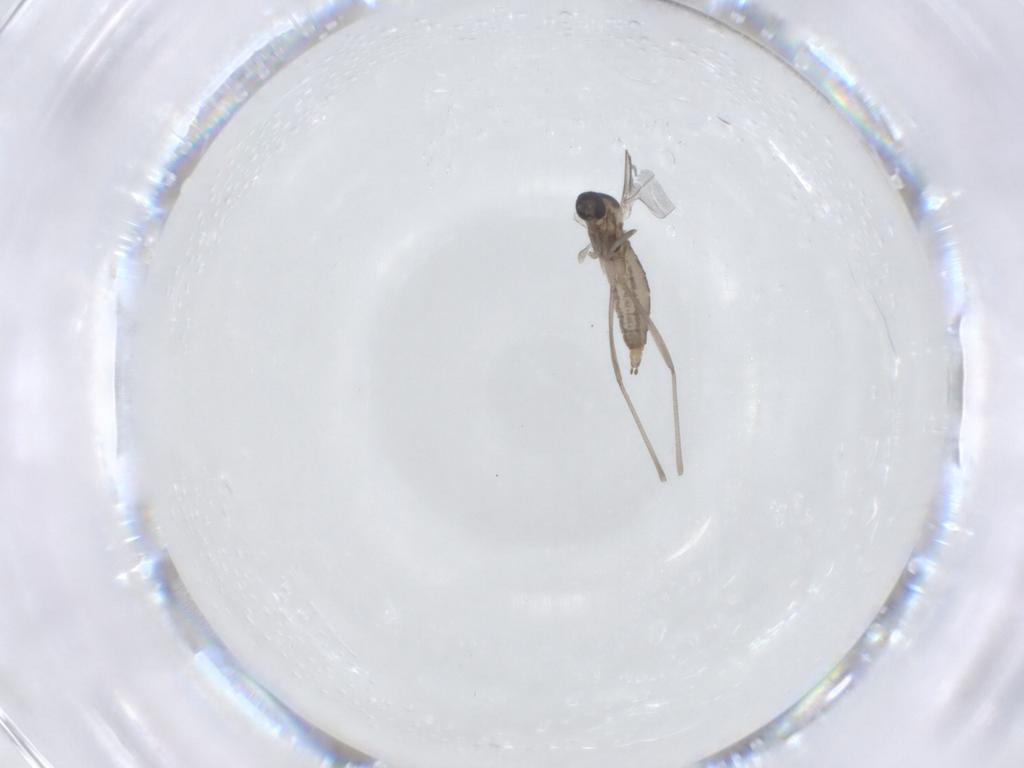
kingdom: Animalia
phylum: Arthropoda
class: Insecta
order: Diptera
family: Cecidomyiidae
